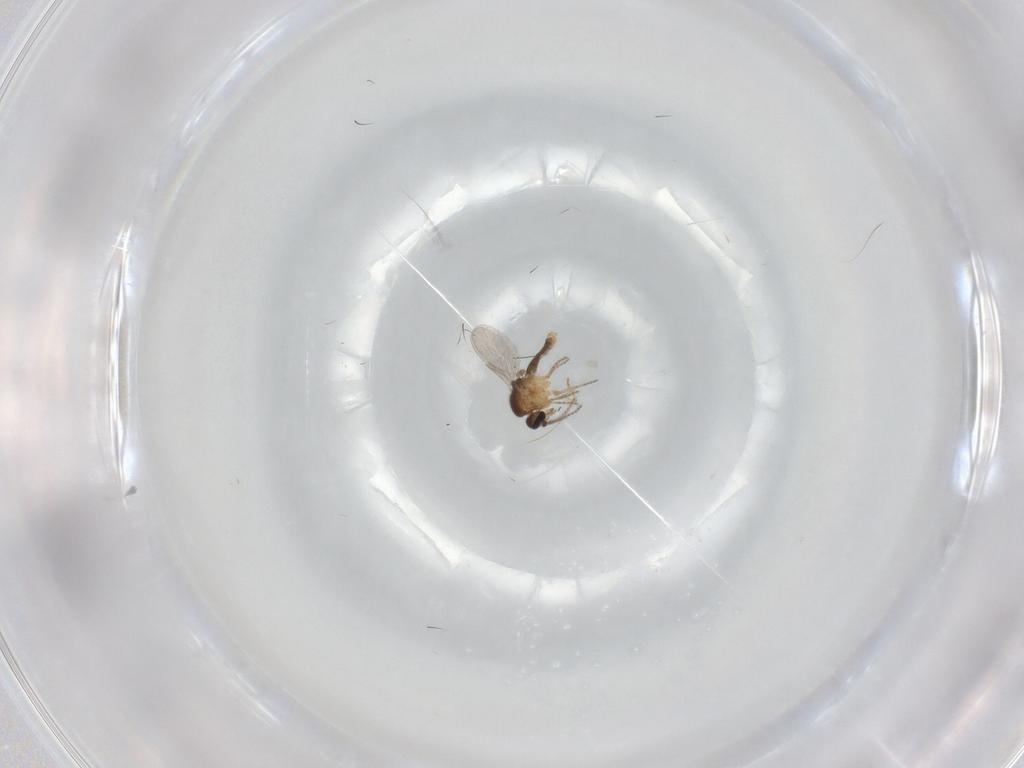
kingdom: Animalia
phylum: Arthropoda
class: Insecta
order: Diptera
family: Ceratopogonidae
